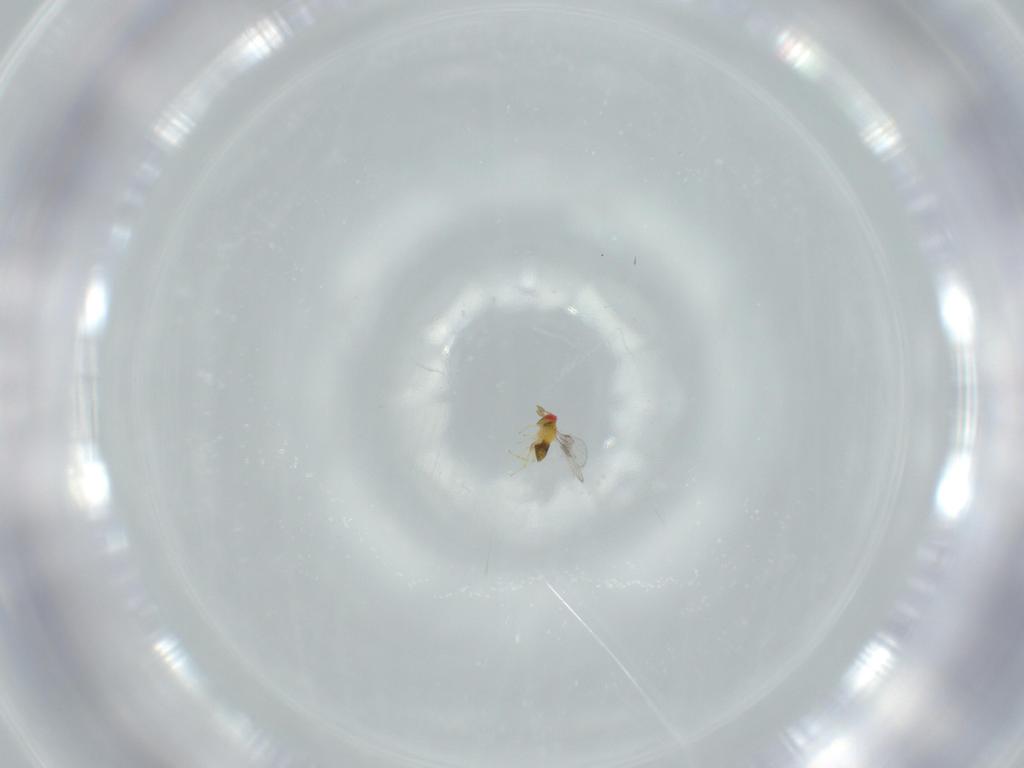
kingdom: Animalia
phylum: Arthropoda
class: Insecta
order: Hymenoptera
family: Trichogrammatidae
